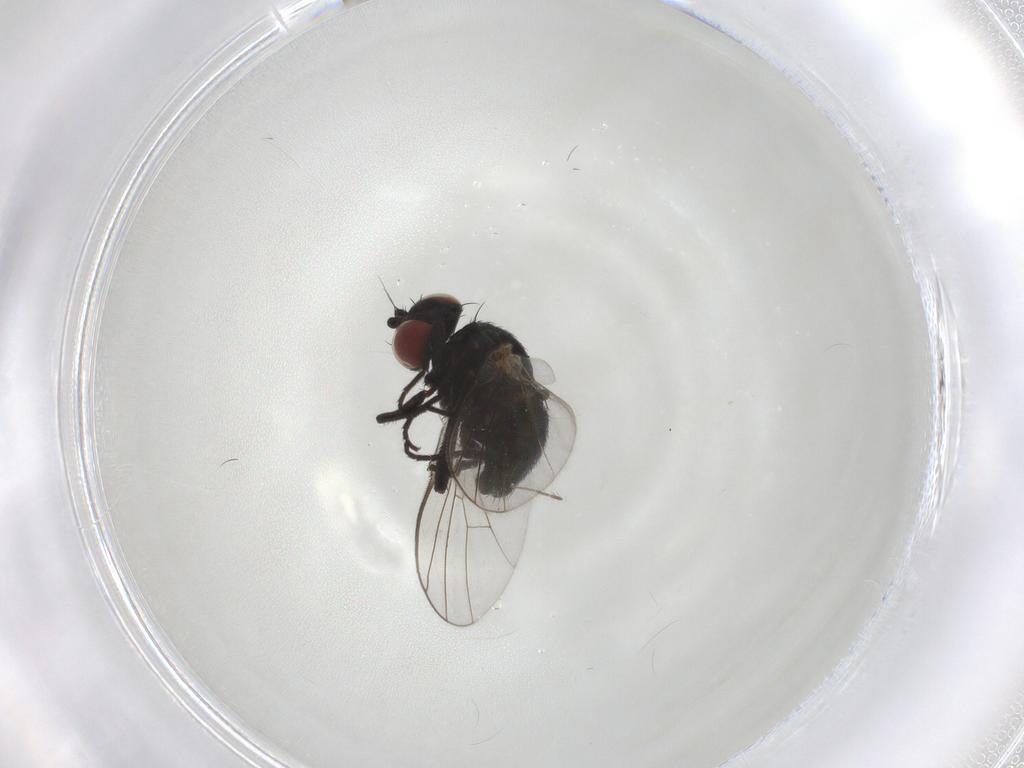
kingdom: Animalia
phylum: Arthropoda
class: Insecta
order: Diptera
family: Agromyzidae
